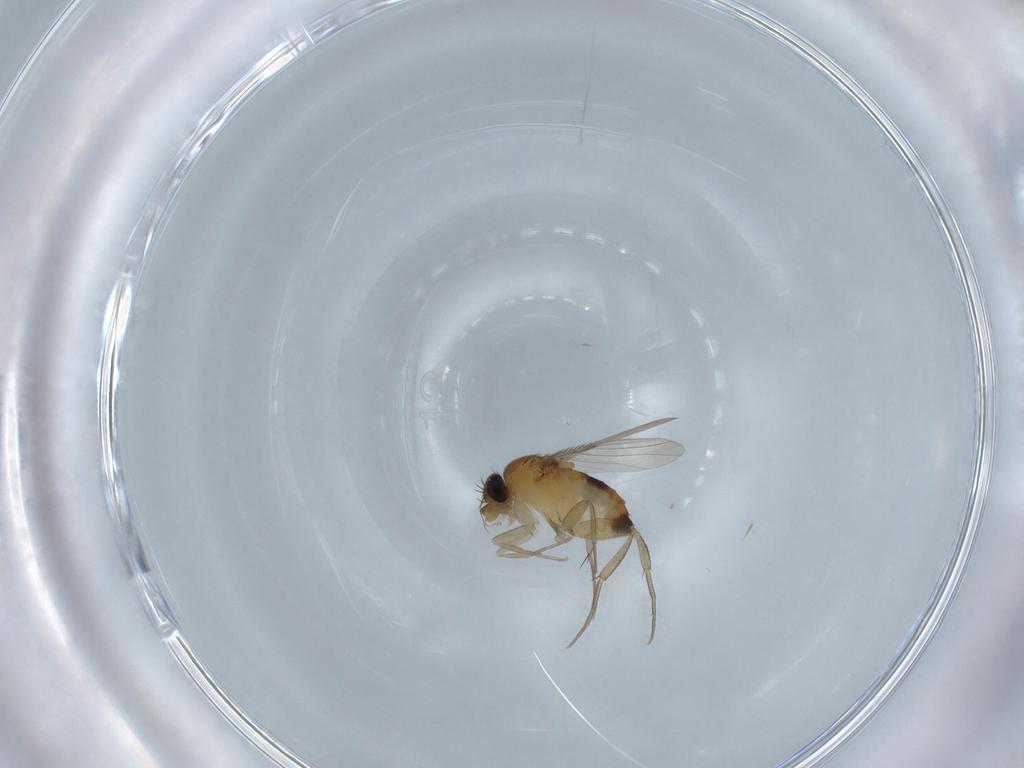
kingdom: Animalia
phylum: Arthropoda
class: Insecta
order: Diptera
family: Phoridae
